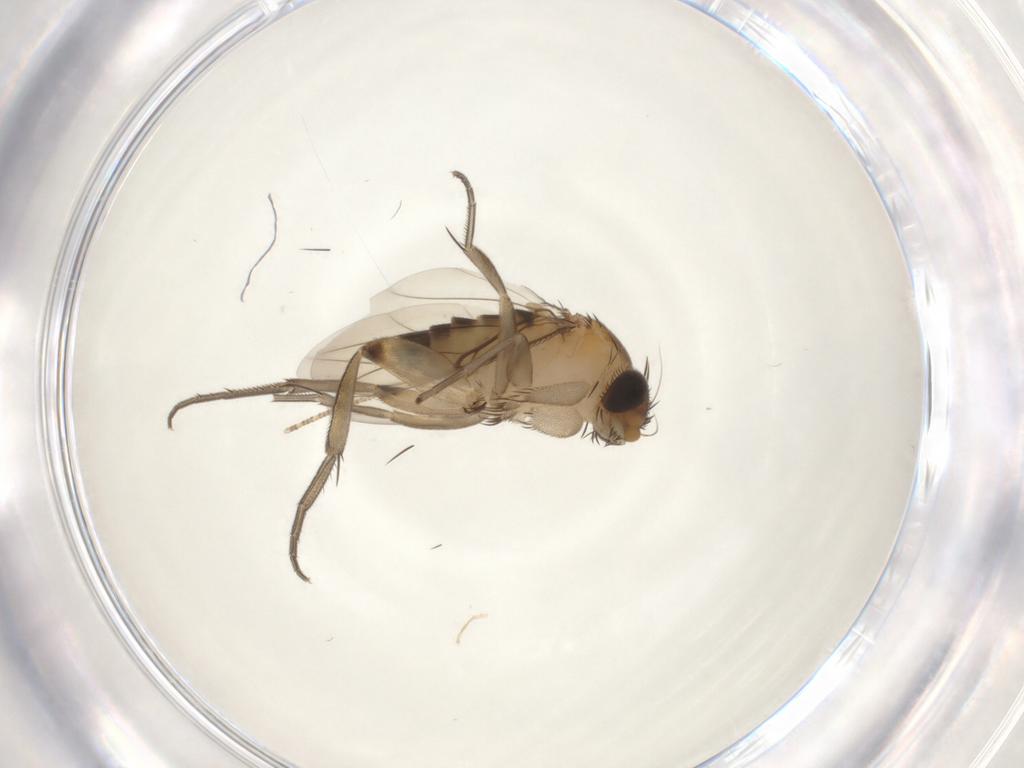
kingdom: Animalia
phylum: Arthropoda
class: Insecta
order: Diptera
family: Phoridae
